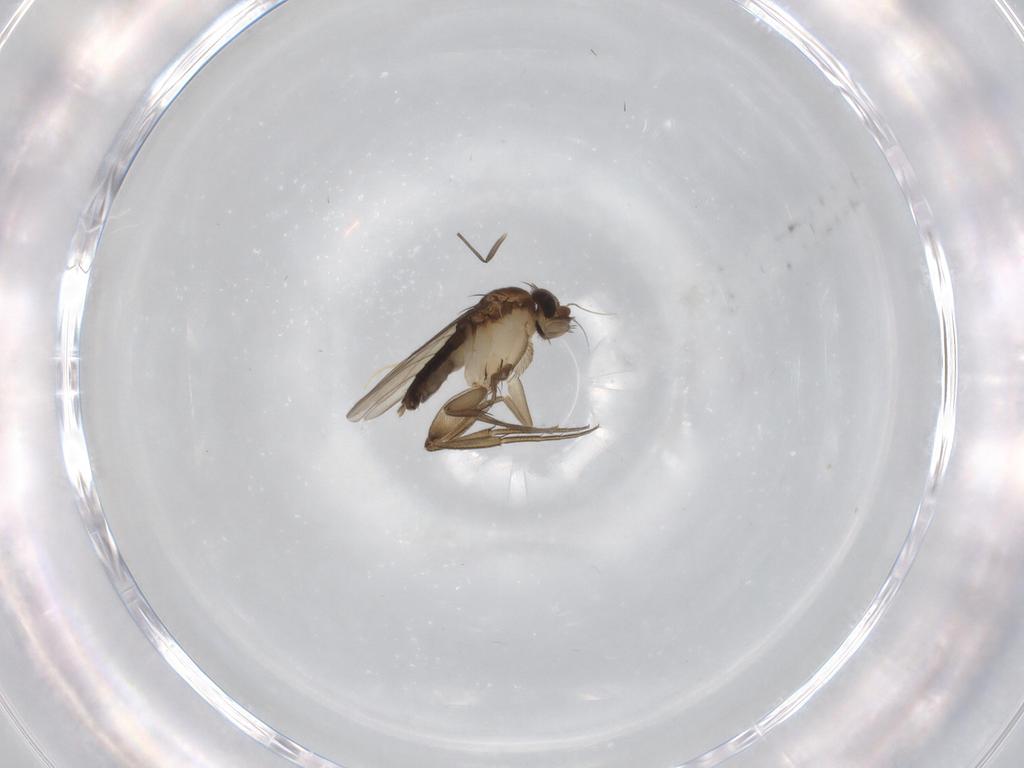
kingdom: Animalia
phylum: Arthropoda
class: Insecta
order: Diptera
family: Phoridae
